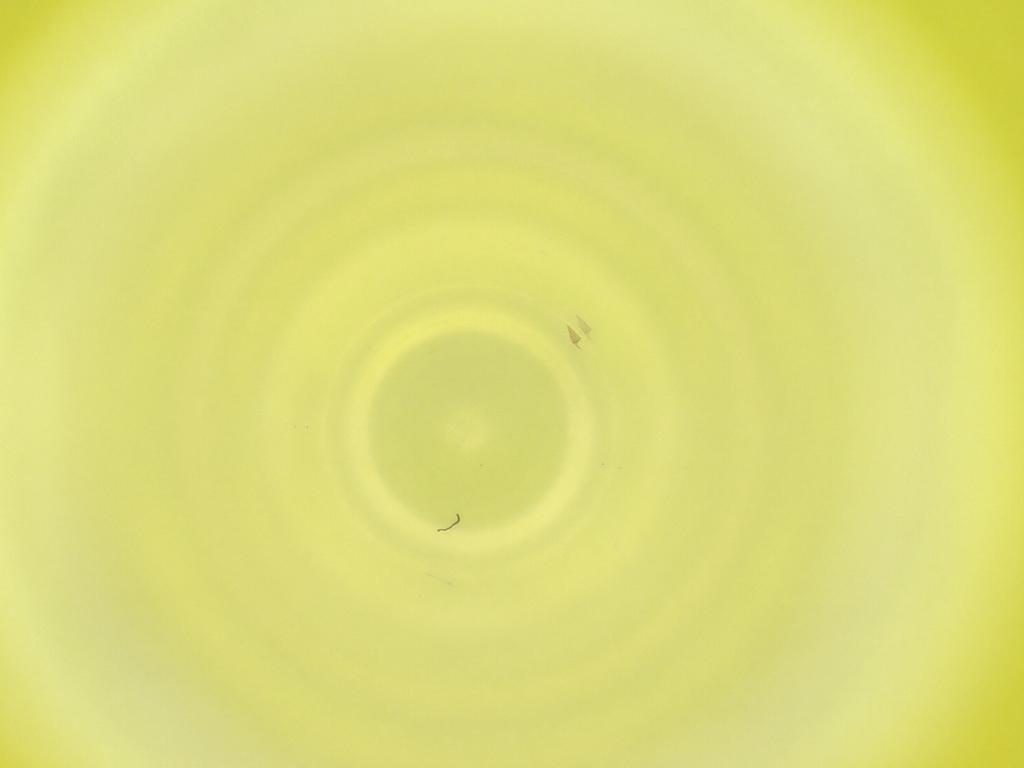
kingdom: Animalia
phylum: Arthropoda
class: Insecta
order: Diptera
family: Cecidomyiidae
